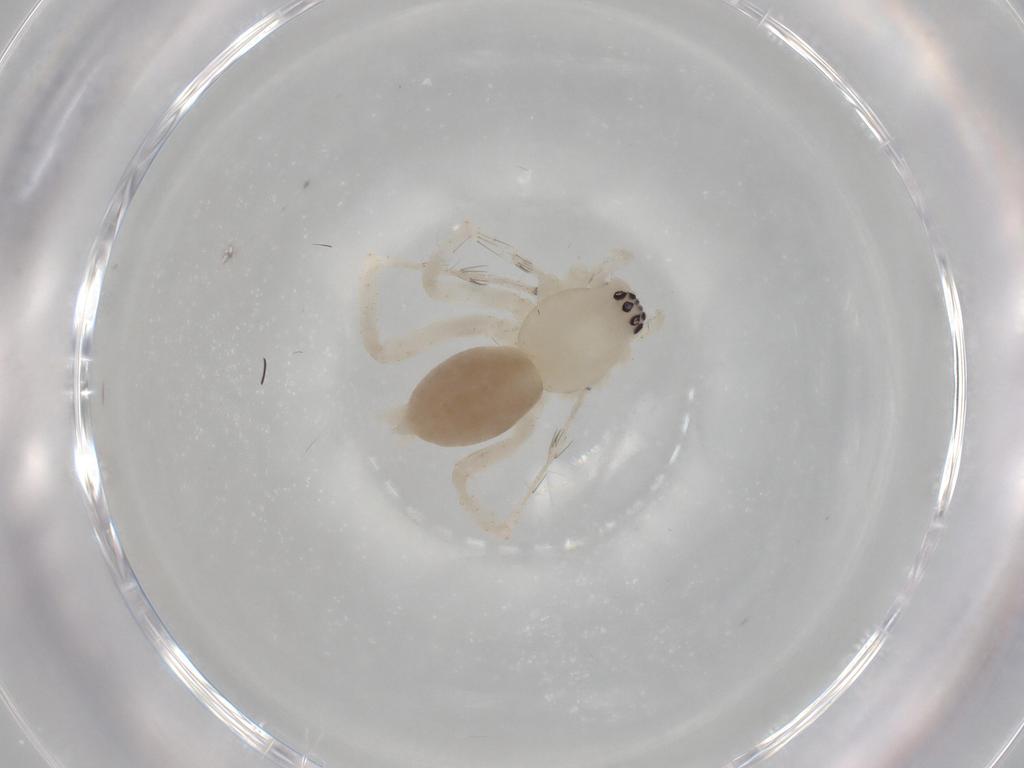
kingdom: Animalia
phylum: Arthropoda
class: Arachnida
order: Araneae
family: Anyphaenidae
